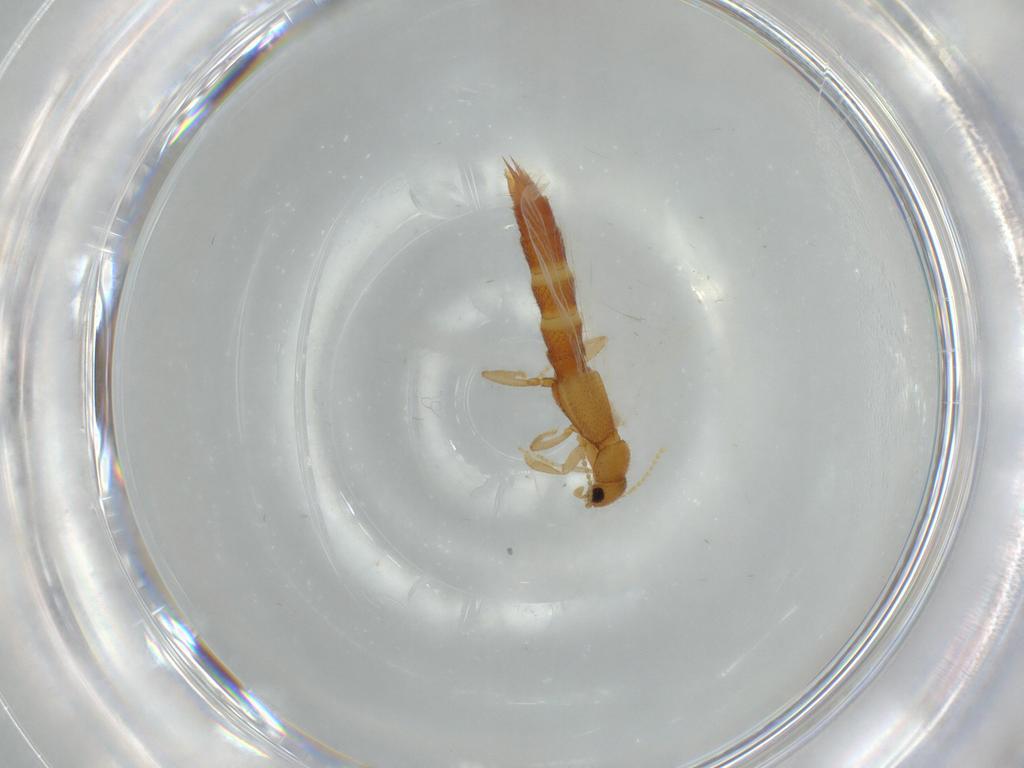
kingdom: Animalia
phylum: Arthropoda
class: Insecta
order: Coleoptera
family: Staphylinidae
